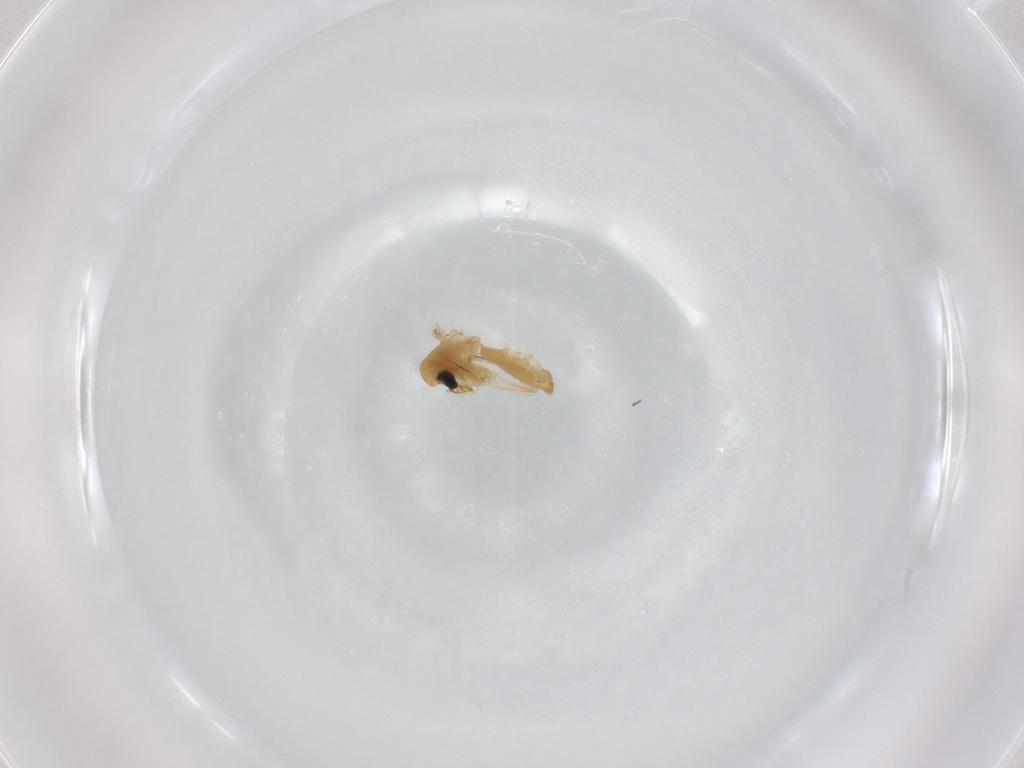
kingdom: Animalia
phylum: Arthropoda
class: Insecta
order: Diptera
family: Chironomidae
